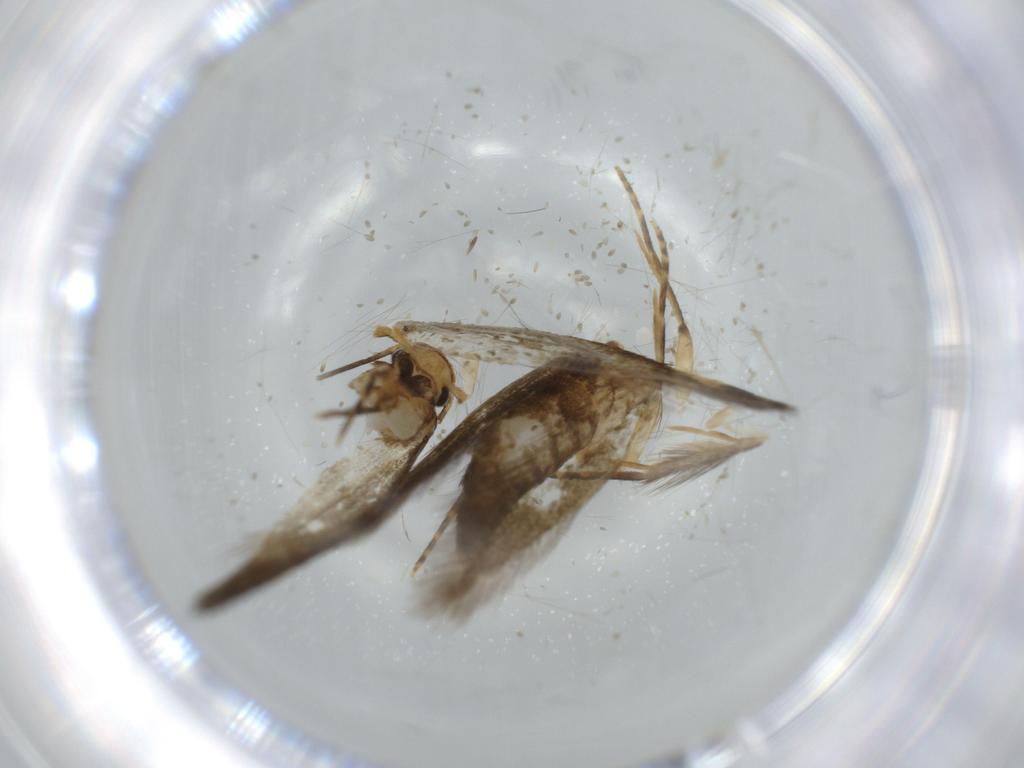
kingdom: Animalia
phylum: Arthropoda
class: Insecta
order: Lepidoptera
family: Tineidae
